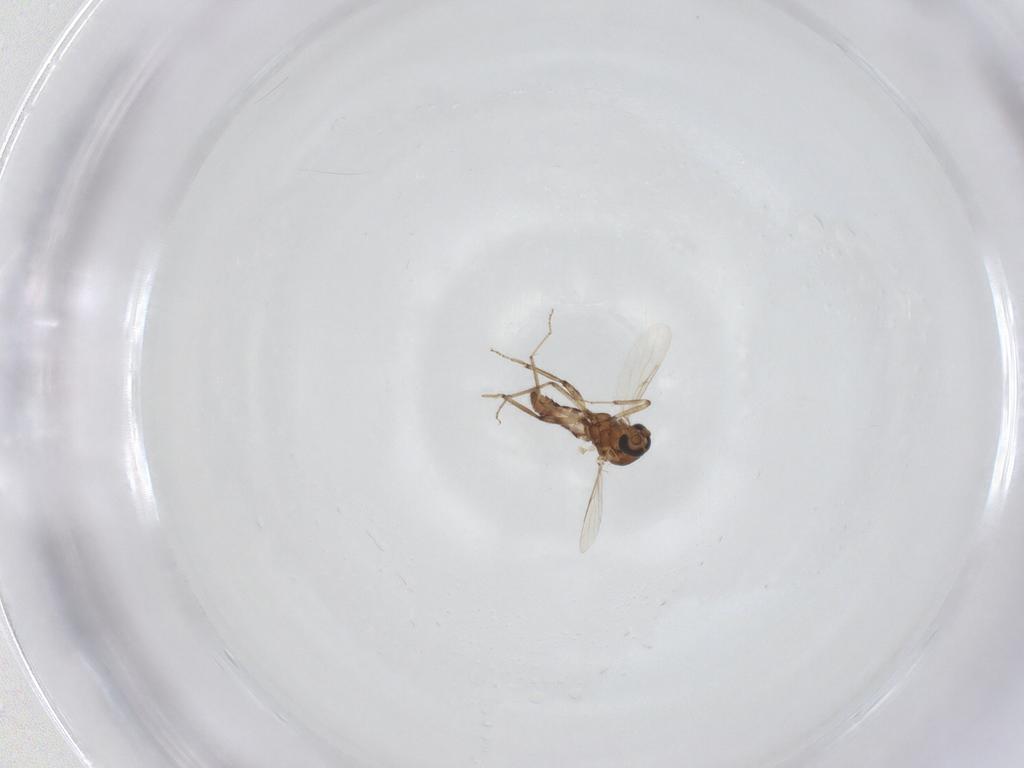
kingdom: Animalia
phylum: Arthropoda
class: Insecta
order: Diptera
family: Ceratopogonidae
